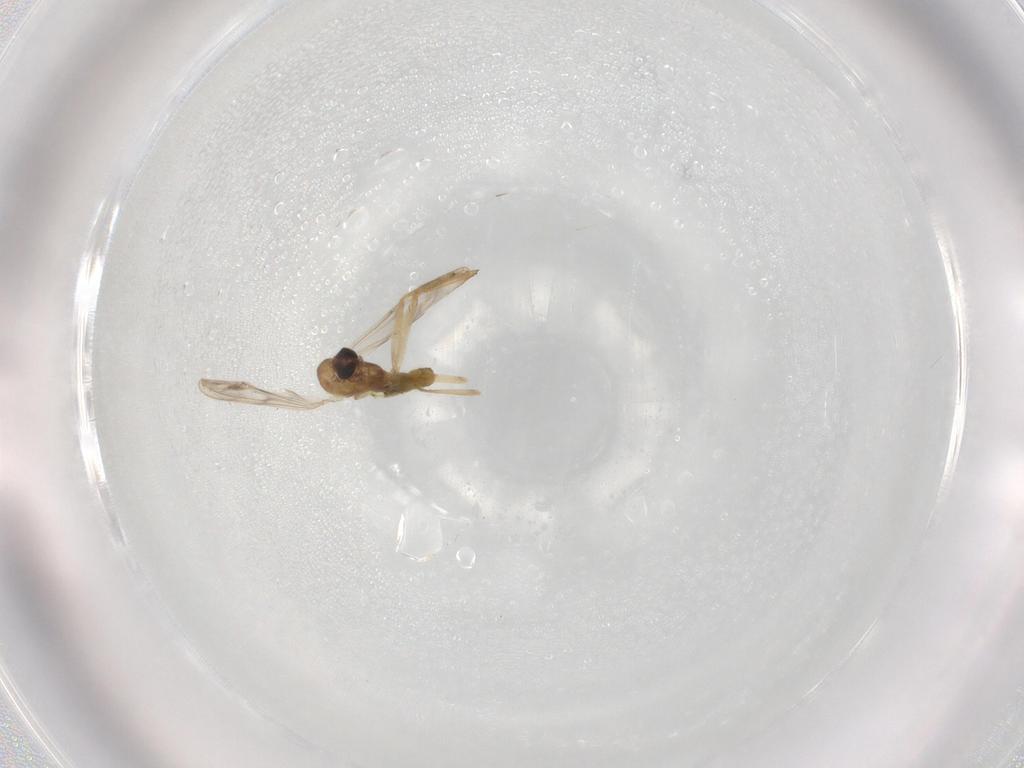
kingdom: Animalia
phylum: Arthropoda
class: Insecta
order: Diptera
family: Chironomidae
